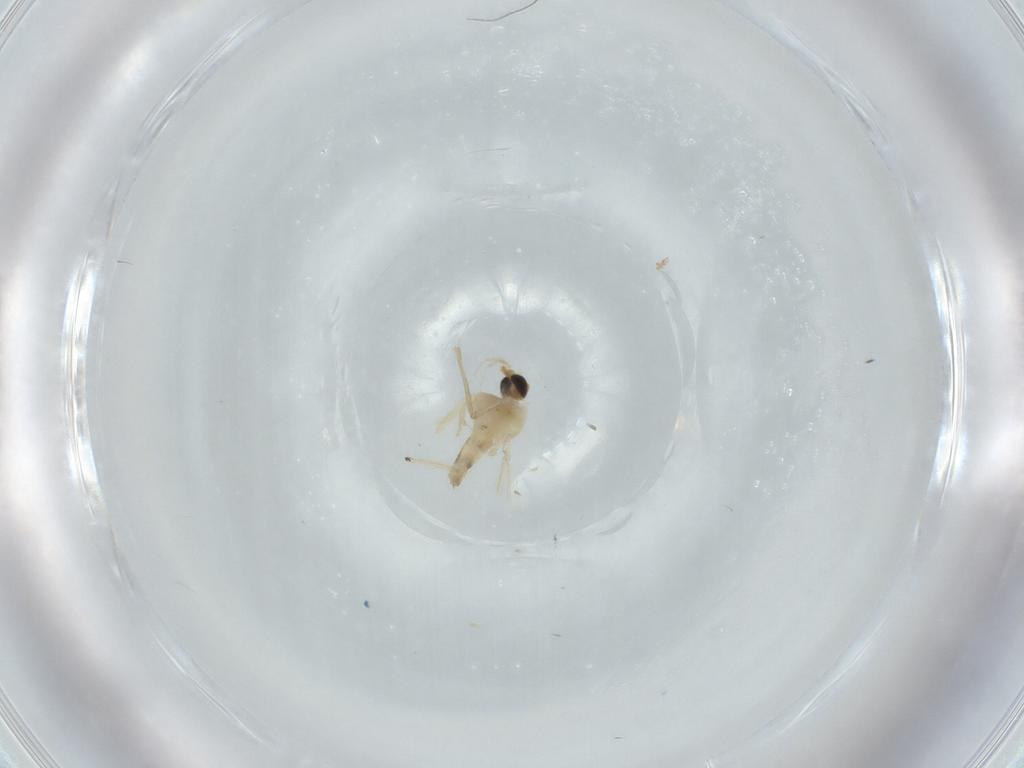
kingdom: Animalia
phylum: Arthropoda
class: Insecta
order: Diptera
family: Chironomidae
